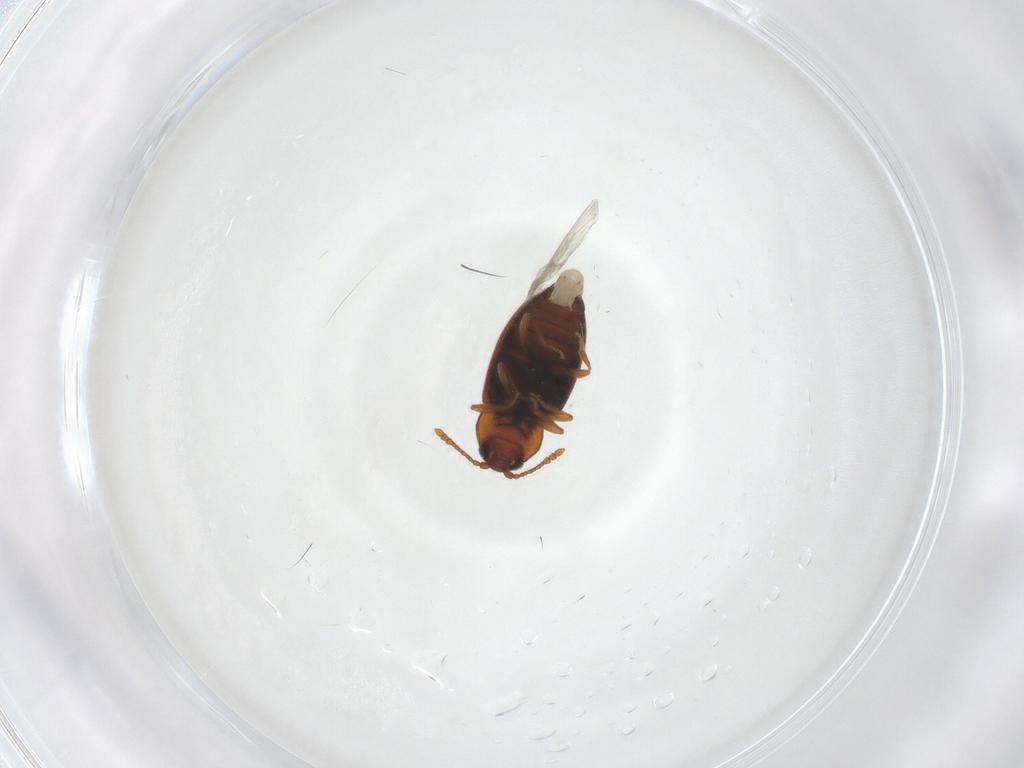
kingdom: Animalia
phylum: Arthropoda
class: Insecta
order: Coleoptera
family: Cryptophagidae
